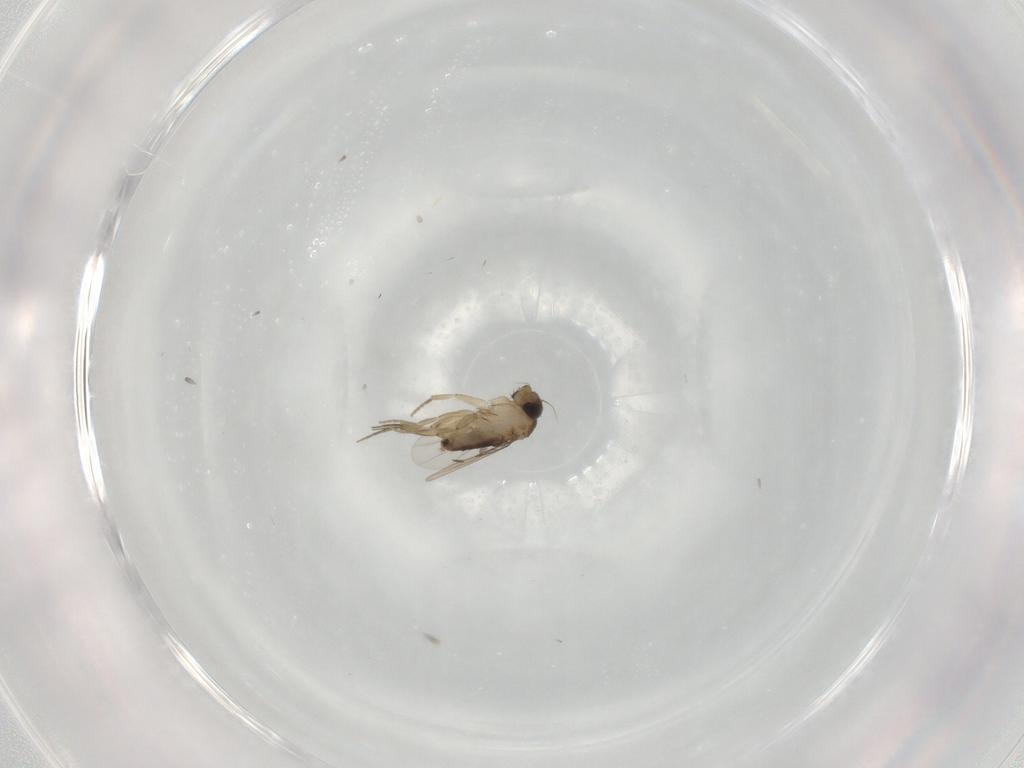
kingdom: Animalia
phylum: Arthropoda
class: Insecta
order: Diptera
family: Phoridae
